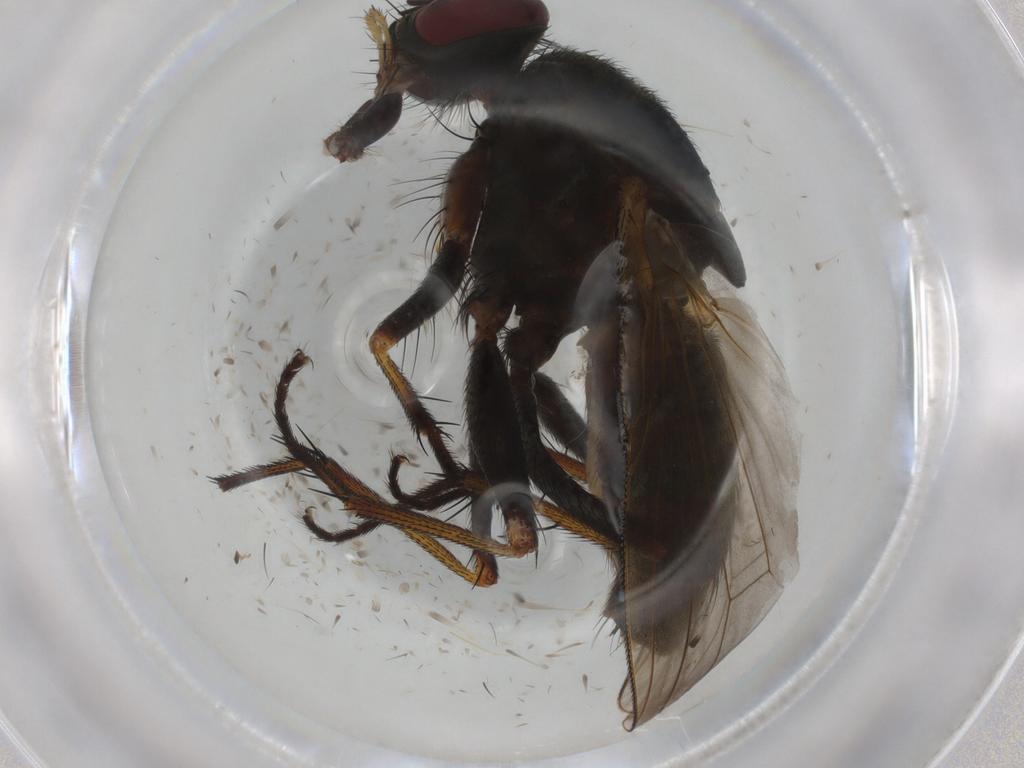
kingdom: Animalia
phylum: Arthropoda
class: Insecta
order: Diptera
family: Muscidae
